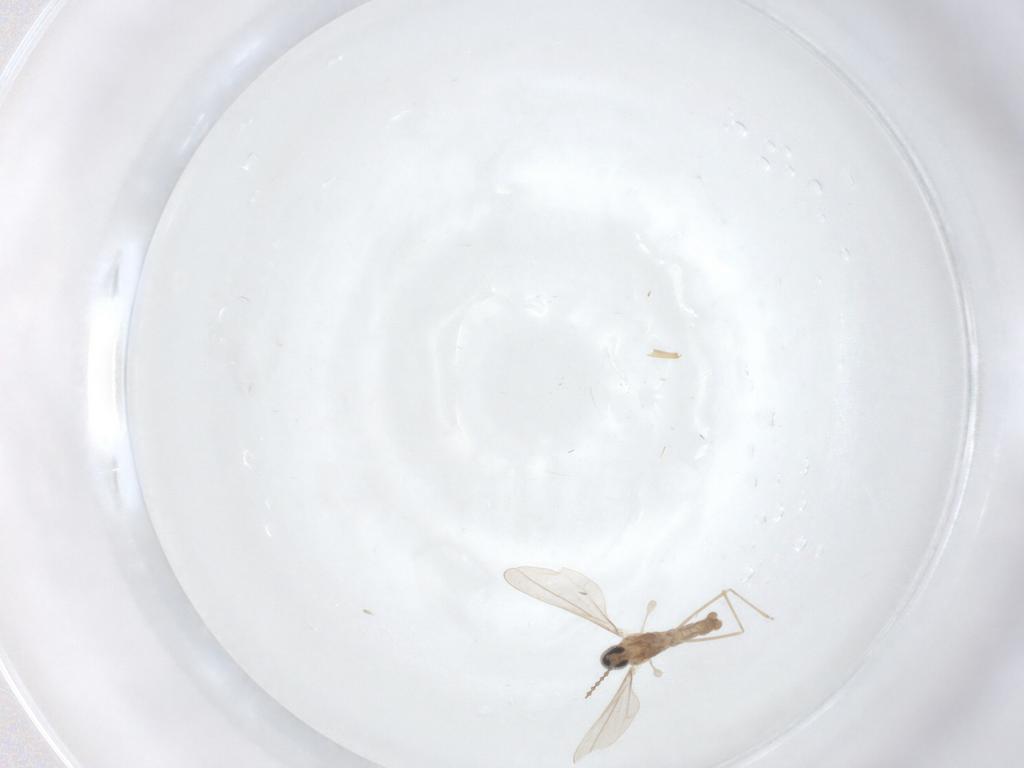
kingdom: Animalia
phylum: Arthropoda
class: Insecta
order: Diptera
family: Cecidomyiidae
